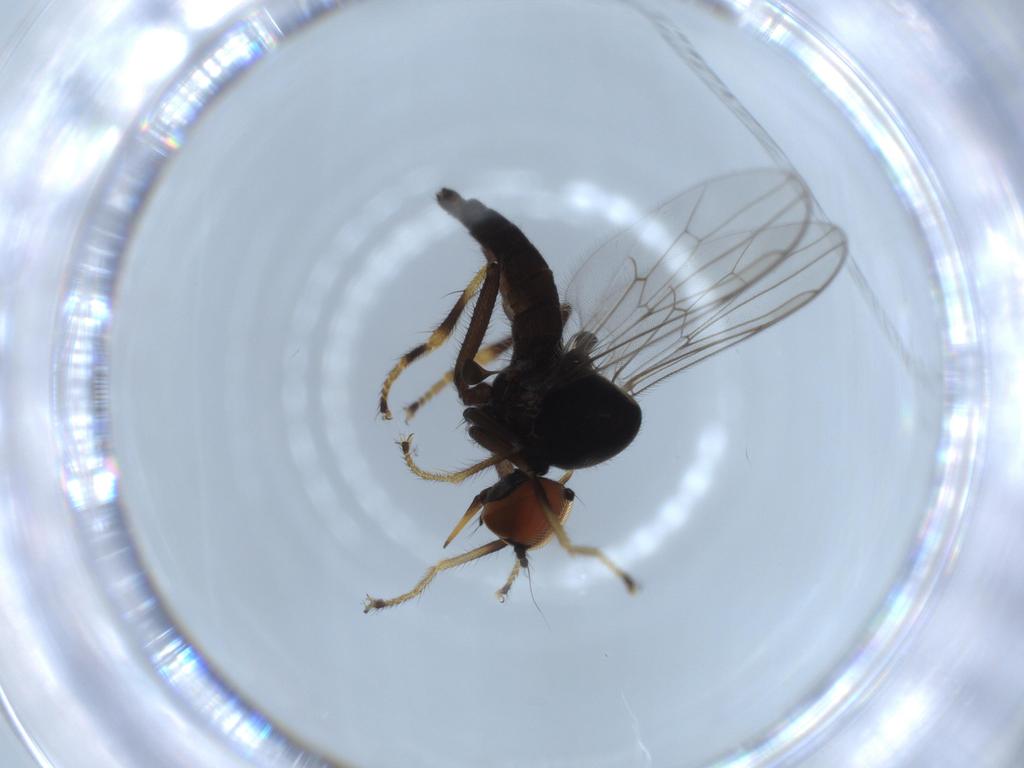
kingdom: Animalia
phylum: Arthropoda
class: Insecta
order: Diptera
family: Hybotidae
